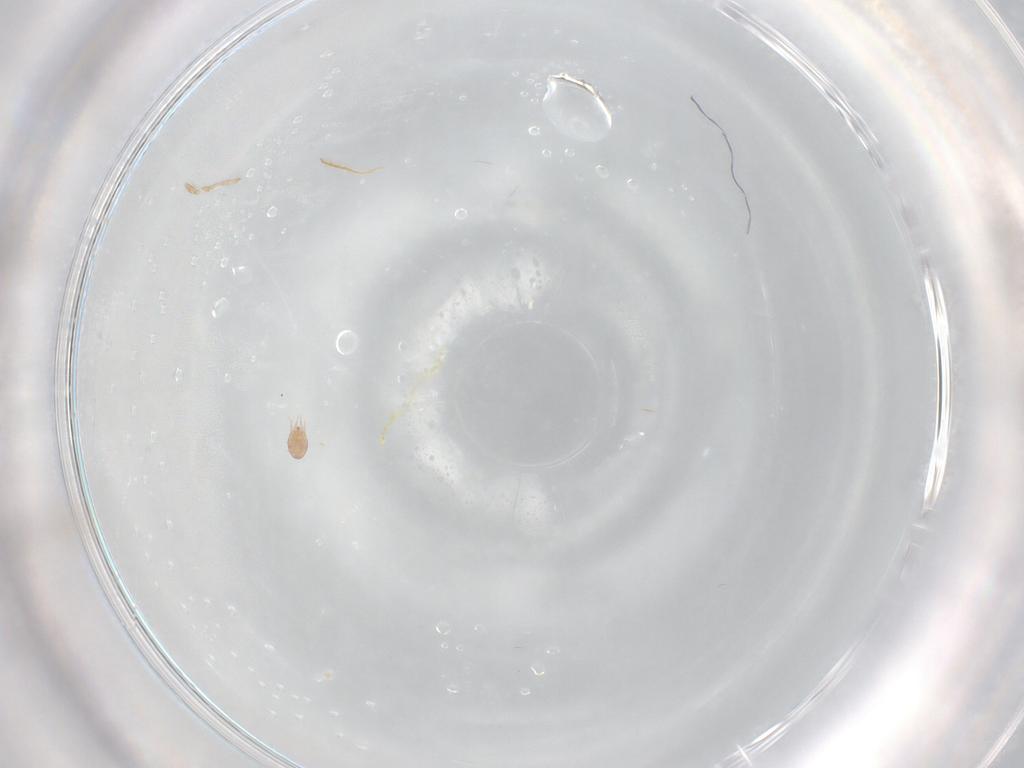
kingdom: Animalia
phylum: Arthropoda
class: Arachnida
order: Sarcoptiformes
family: Hemisarcoptidae
